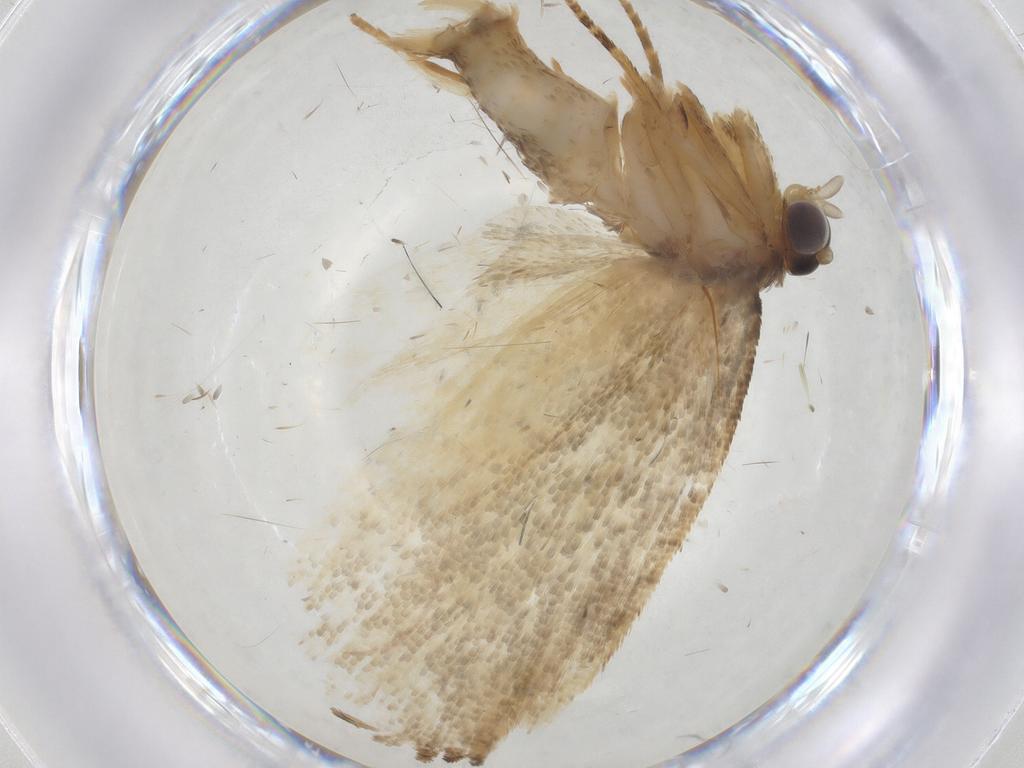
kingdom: Animalia
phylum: Arthropoda
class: Insecta
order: Lepidoptera
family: Tortricidae
